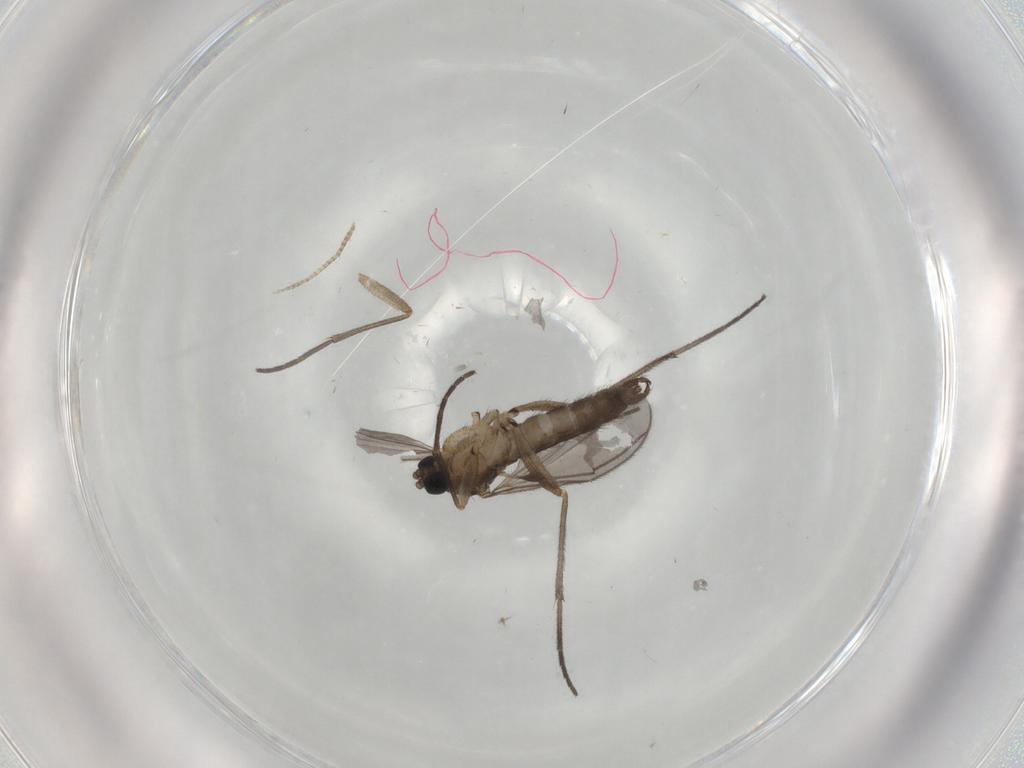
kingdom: Animalia
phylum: Arthropoda
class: Insecta
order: Diptera
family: Sciaridae
